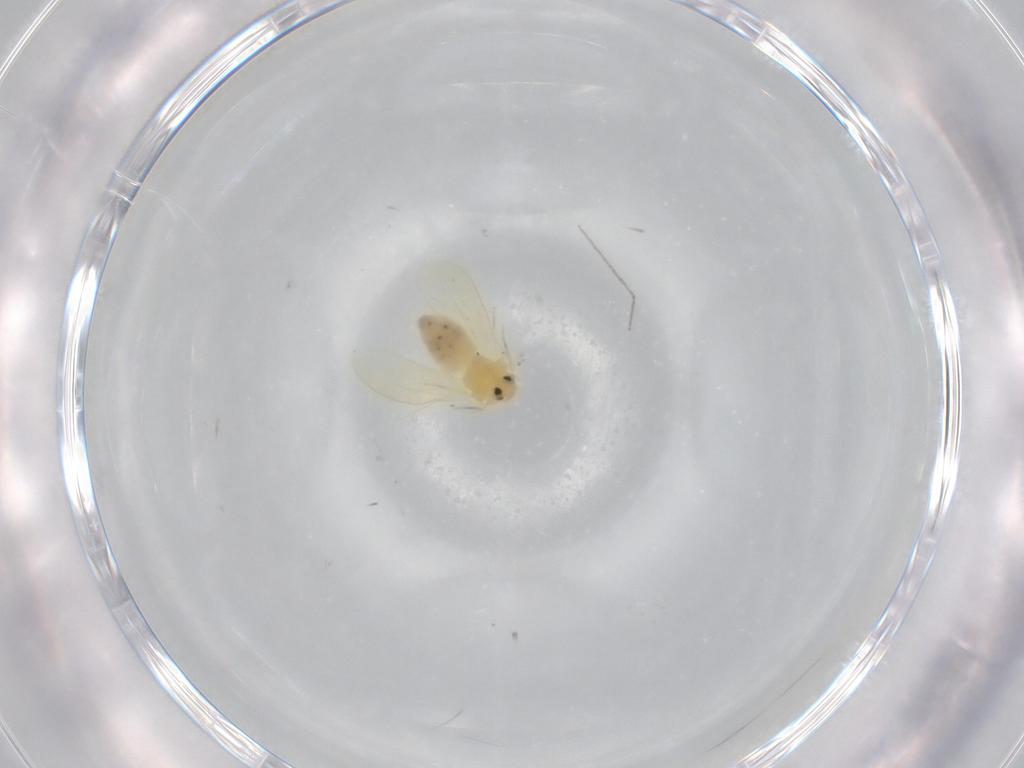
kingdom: Animalia
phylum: Arthropoda
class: Insecta
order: Hemiptera
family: Aleyrodidae
